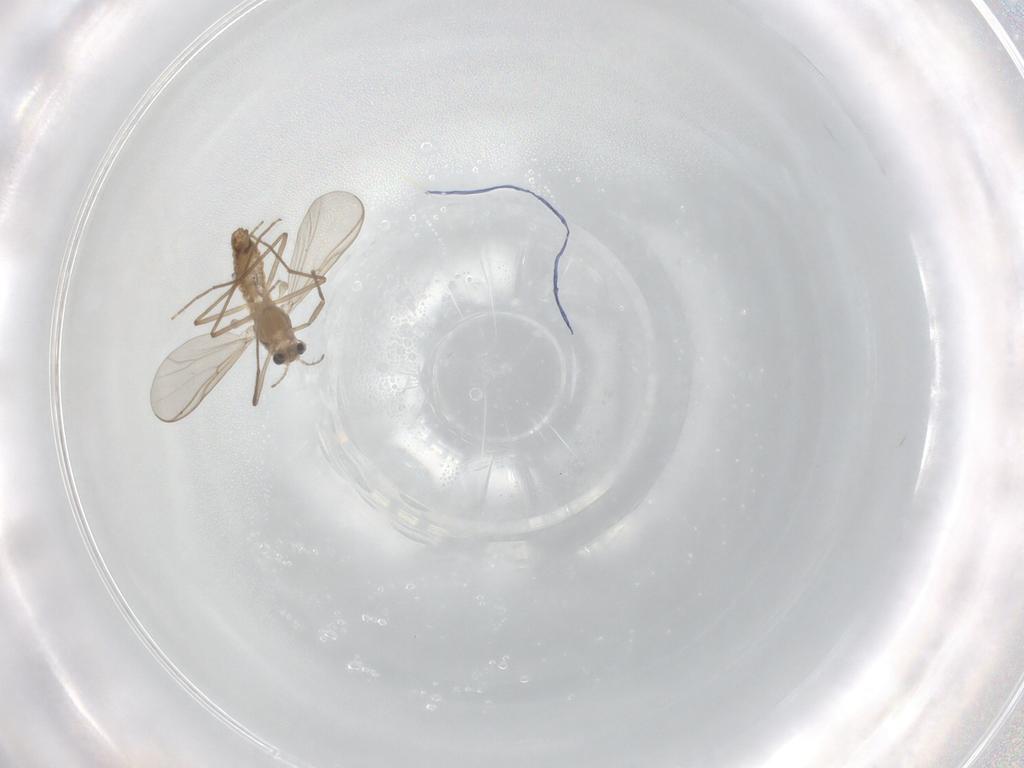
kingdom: Animalia
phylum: Arthropoda
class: Insecta
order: Diptera
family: Chironomidae
